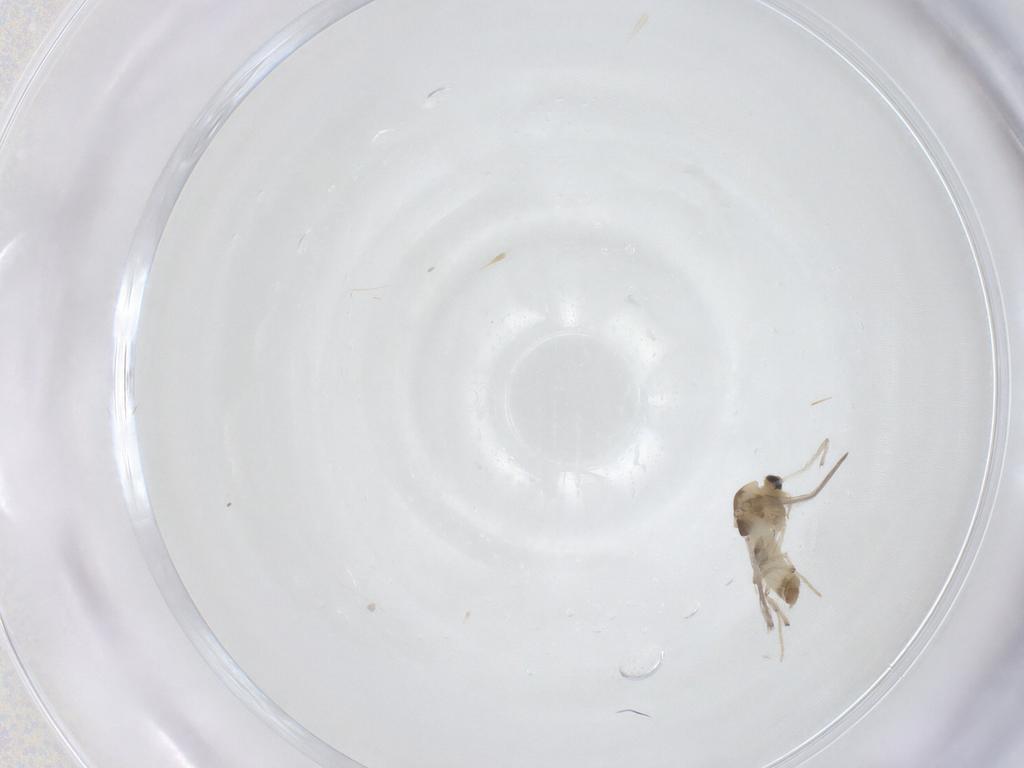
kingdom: Animalia
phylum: Arthropoda
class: Insecta
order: Diptera
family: Chironomidae
